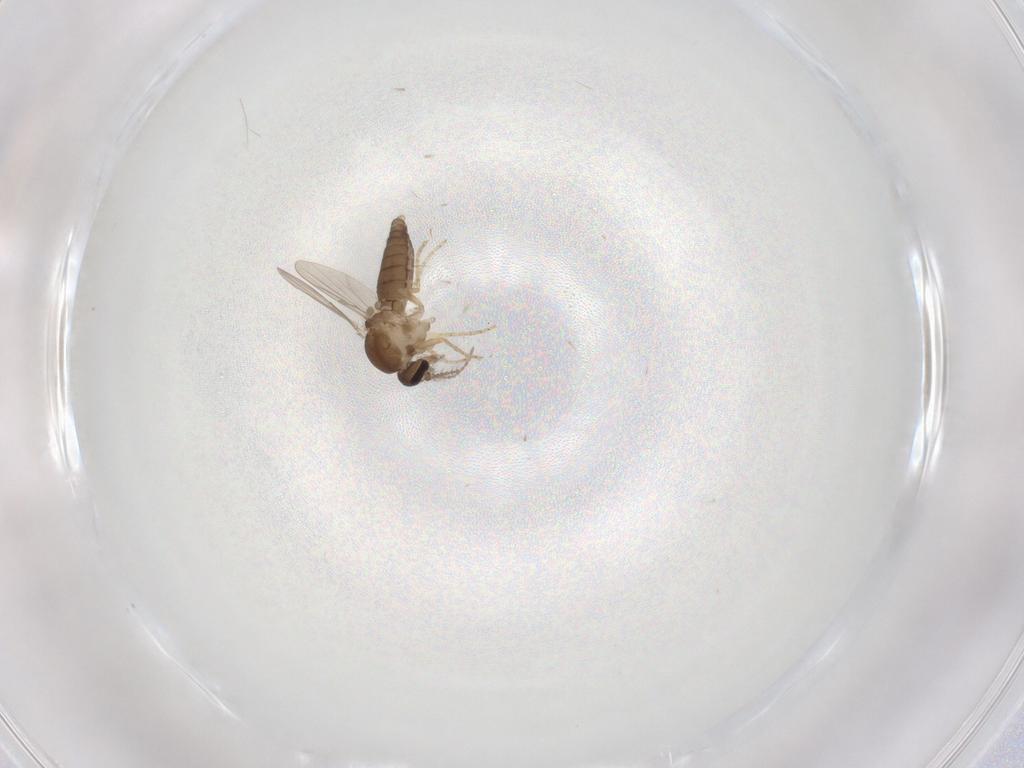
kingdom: Animalia
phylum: Arthropoda
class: Insecta
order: Diptera
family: Ceratopogonidae
